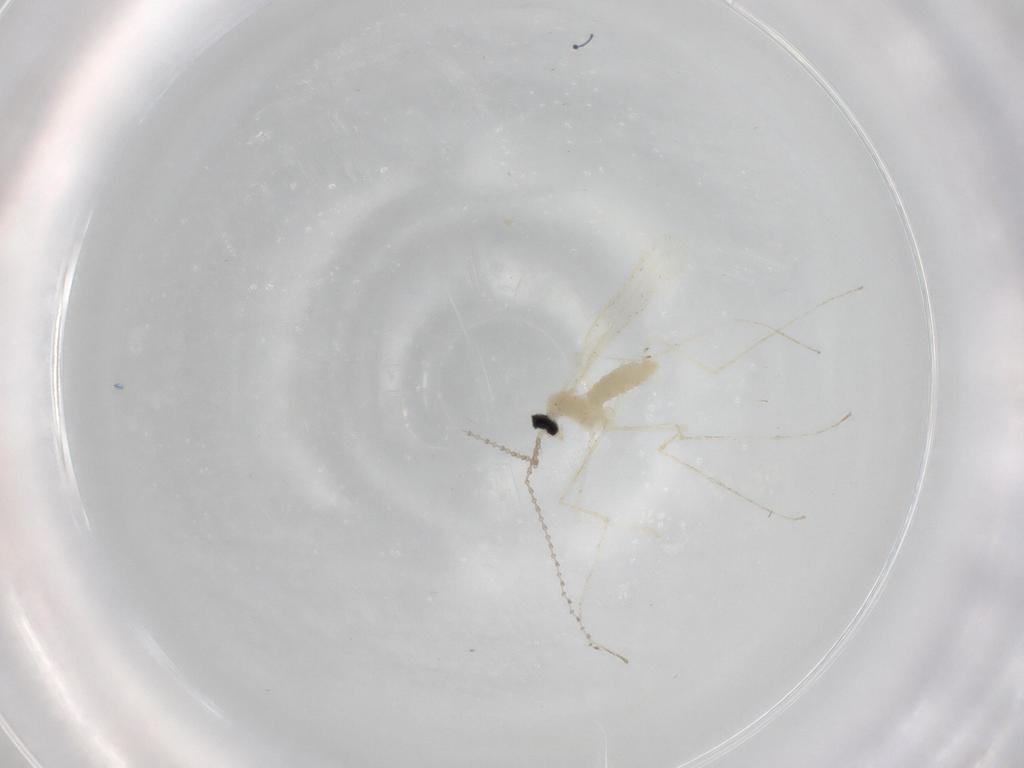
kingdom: Animalia
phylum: Arthropoda
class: Insecta
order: Diptera
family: Cecidomyiidae
